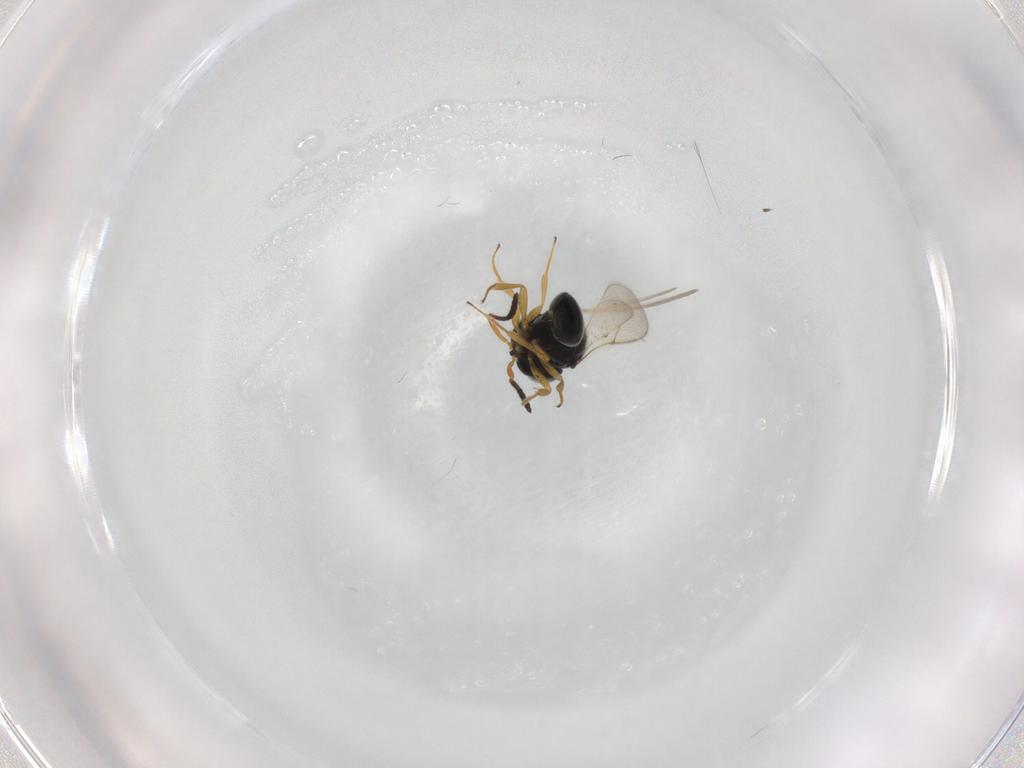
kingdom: Animalia
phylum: Arthropoda
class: Insecta
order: Hymenoptera
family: Scelionidae
